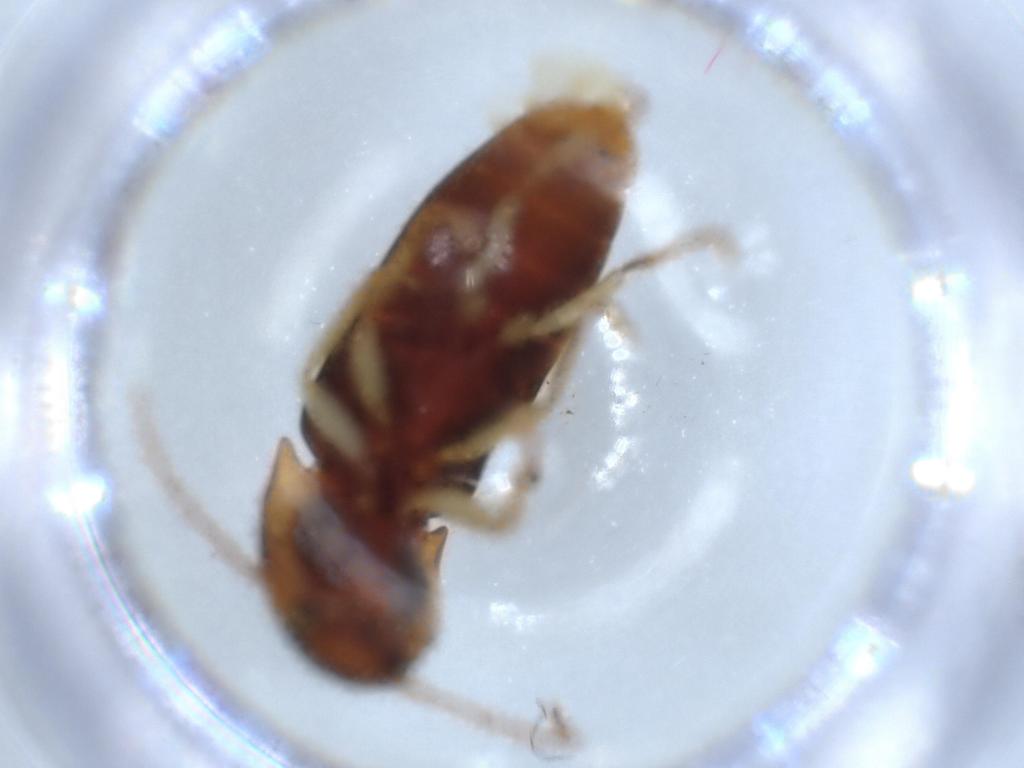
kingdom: Animalia
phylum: Arthropoda
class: Insecta
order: Coleoptera
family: Elateridae
